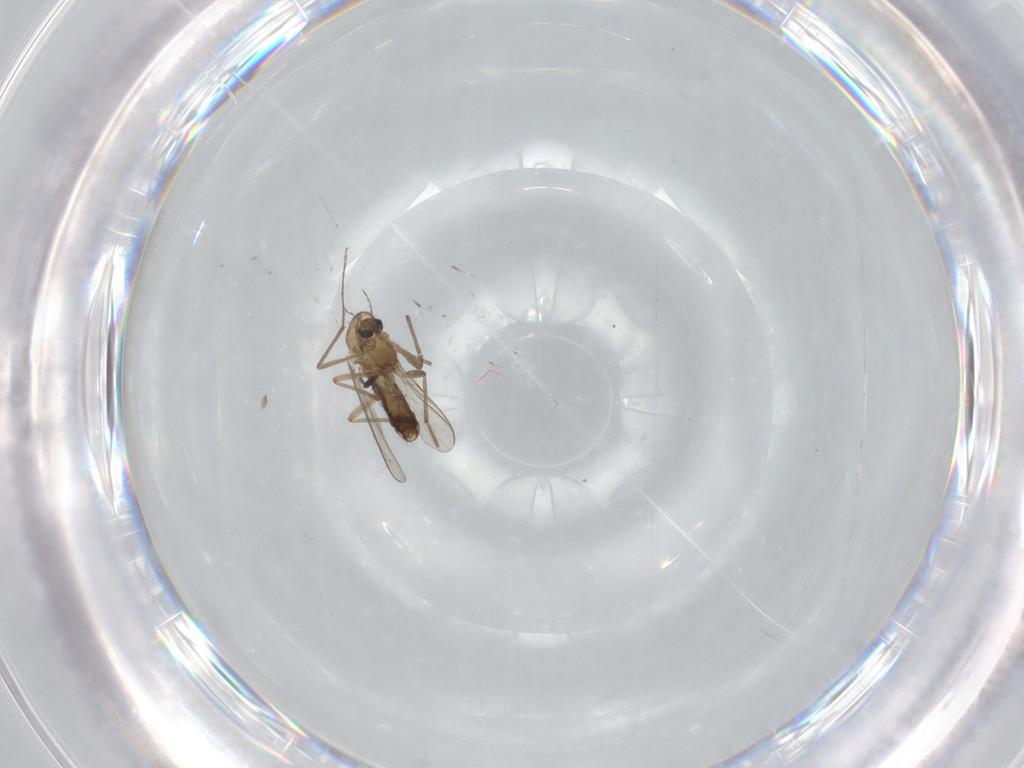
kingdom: Animalia
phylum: Arthropoda
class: Insecta
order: Diptera
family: Chironomidae
